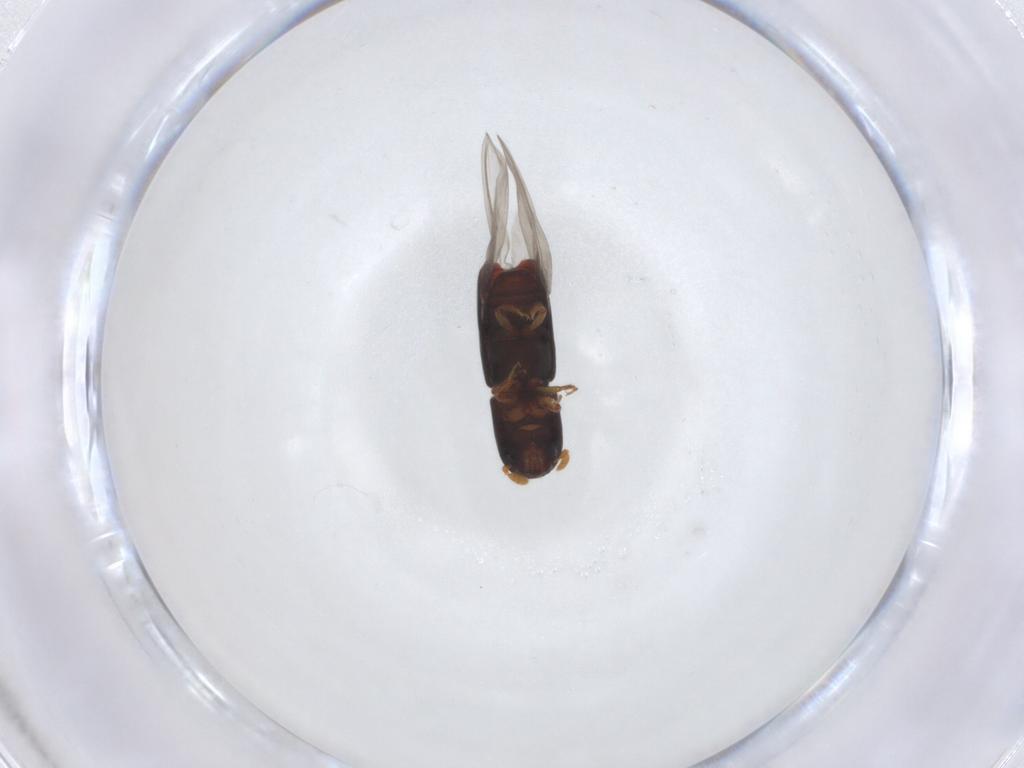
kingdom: Animalia
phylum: Arthropoda
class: Insecta
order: Coleoptera
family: Curculionidae
